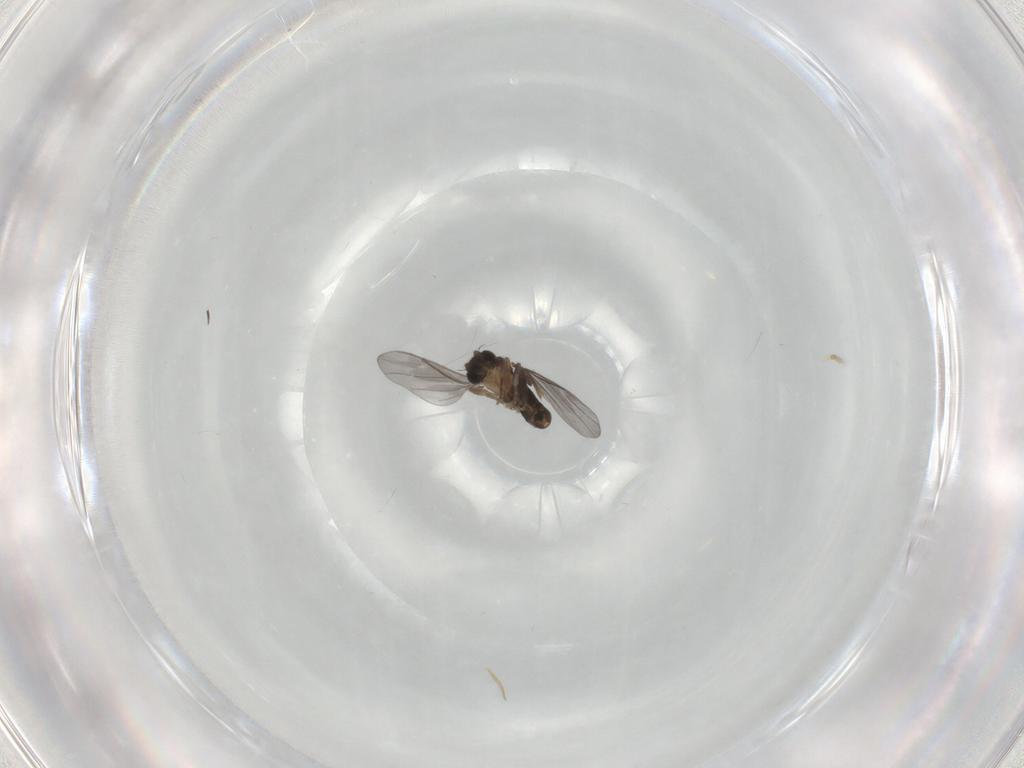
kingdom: Animalia
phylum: Arthropoda
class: Insecta
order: Diptera
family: Phoridae
